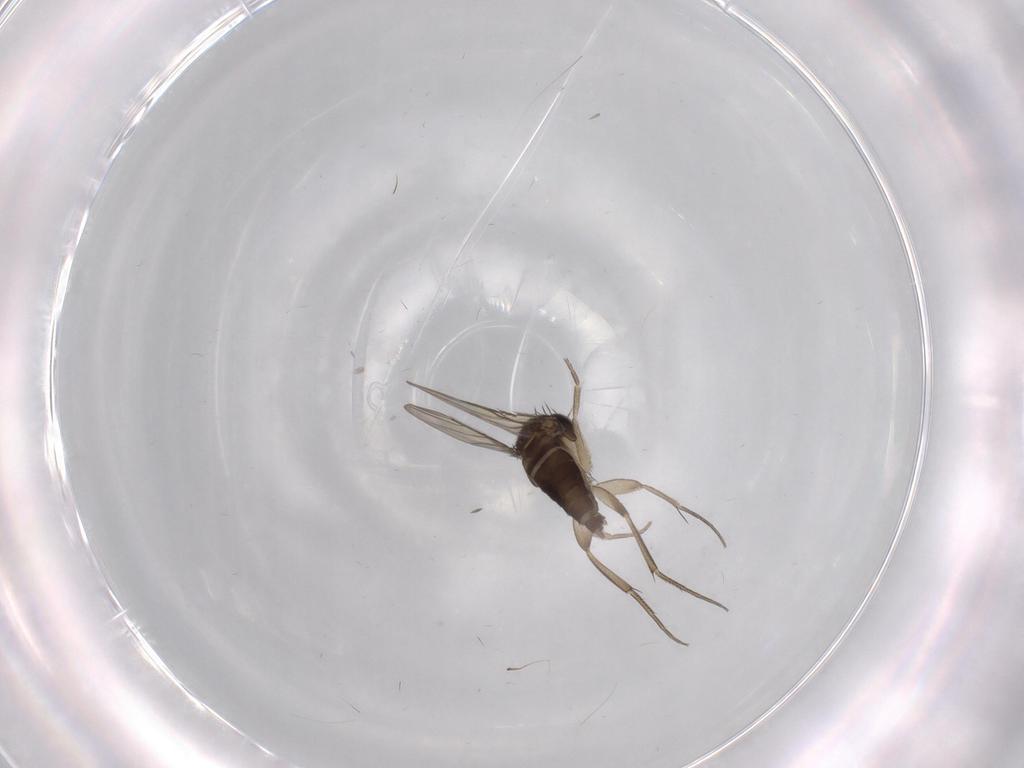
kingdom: Animalia
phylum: Arthropoda
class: Insecta
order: Diptera
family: Phoridae
